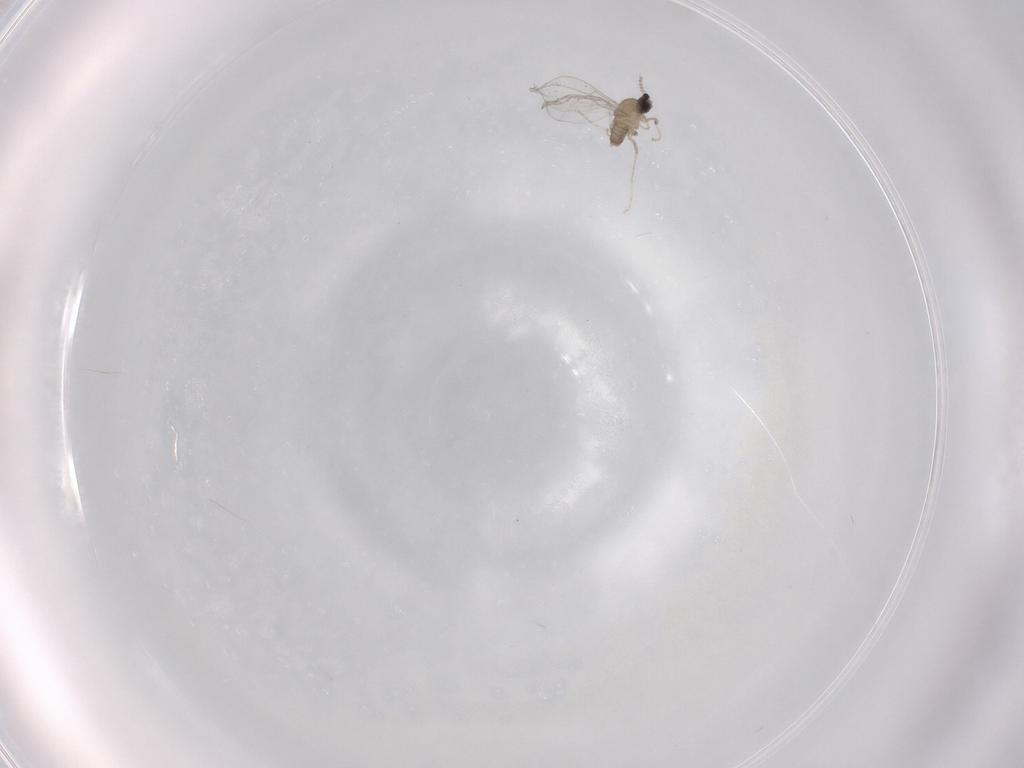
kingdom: Animalia
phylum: Arthropoda
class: Insecta
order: Diptera
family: Cecidomyiidae
